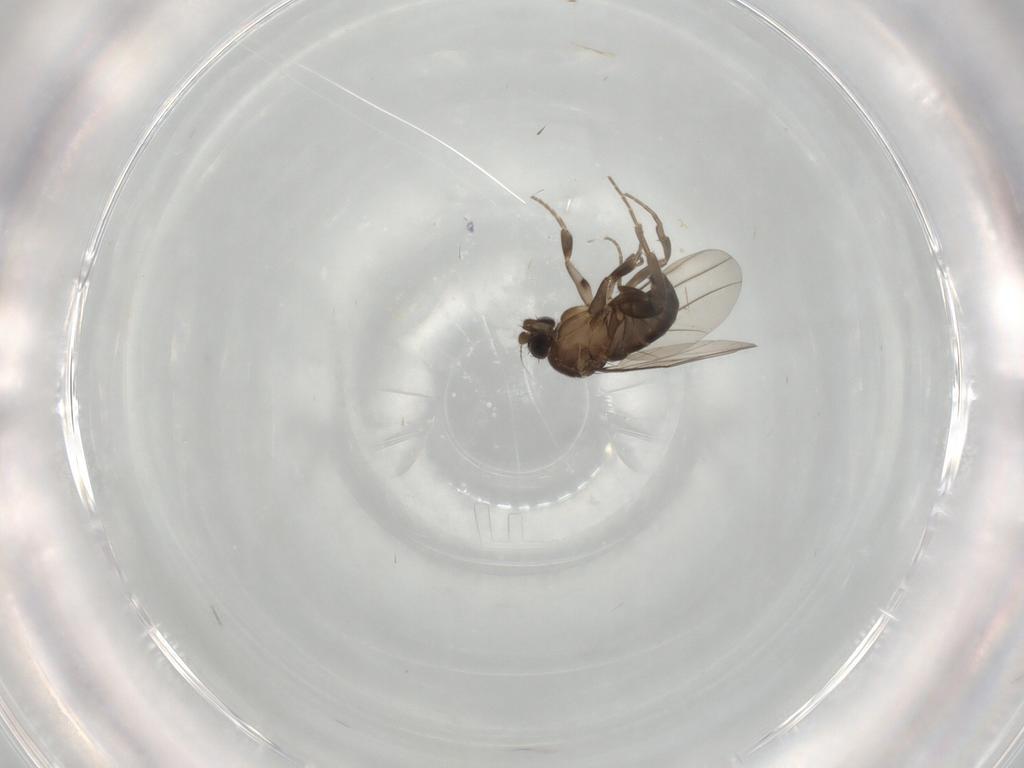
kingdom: Animalia
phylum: Arthropoda
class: Insecta
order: Diptera
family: Phoridae
